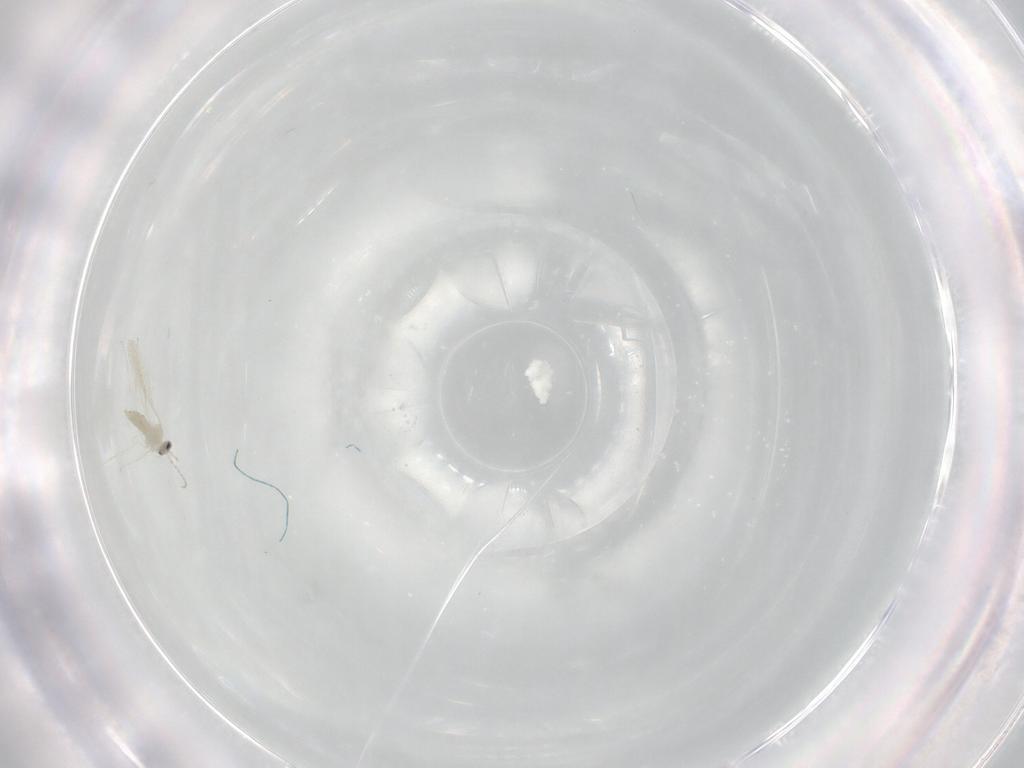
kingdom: Animalia
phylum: Arthropoda
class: Insecta
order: Diptera
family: Cecidomyiidae
